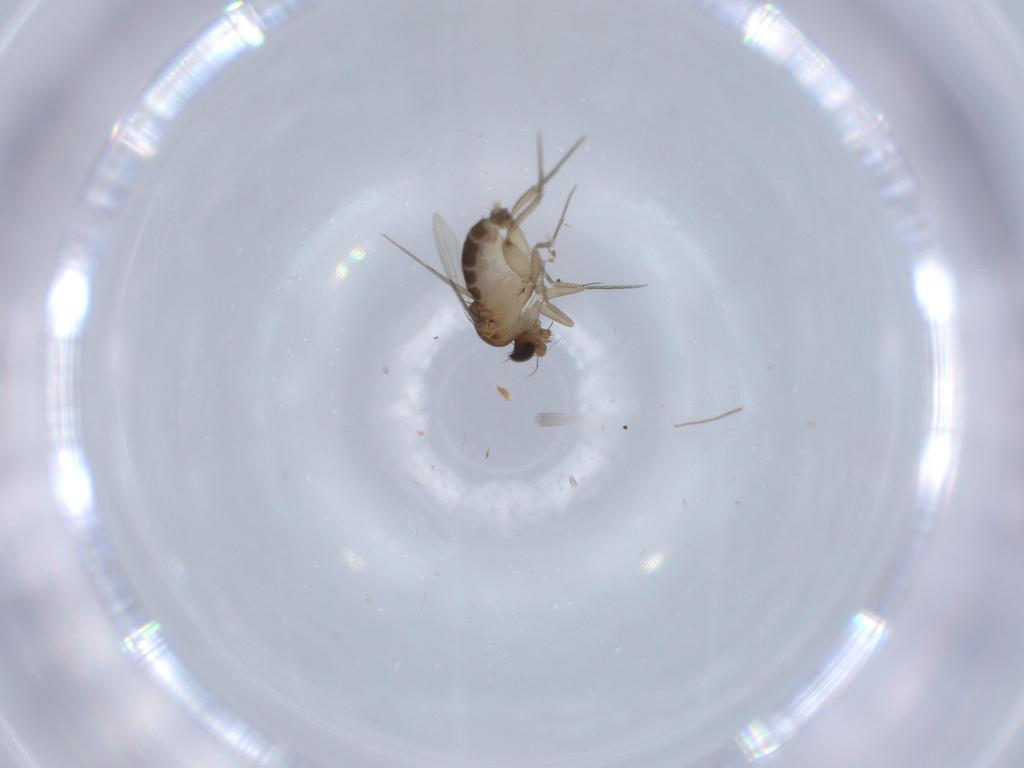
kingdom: Animalia
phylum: Arthropoda
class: Insecta
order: Diptera
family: Phoridae
